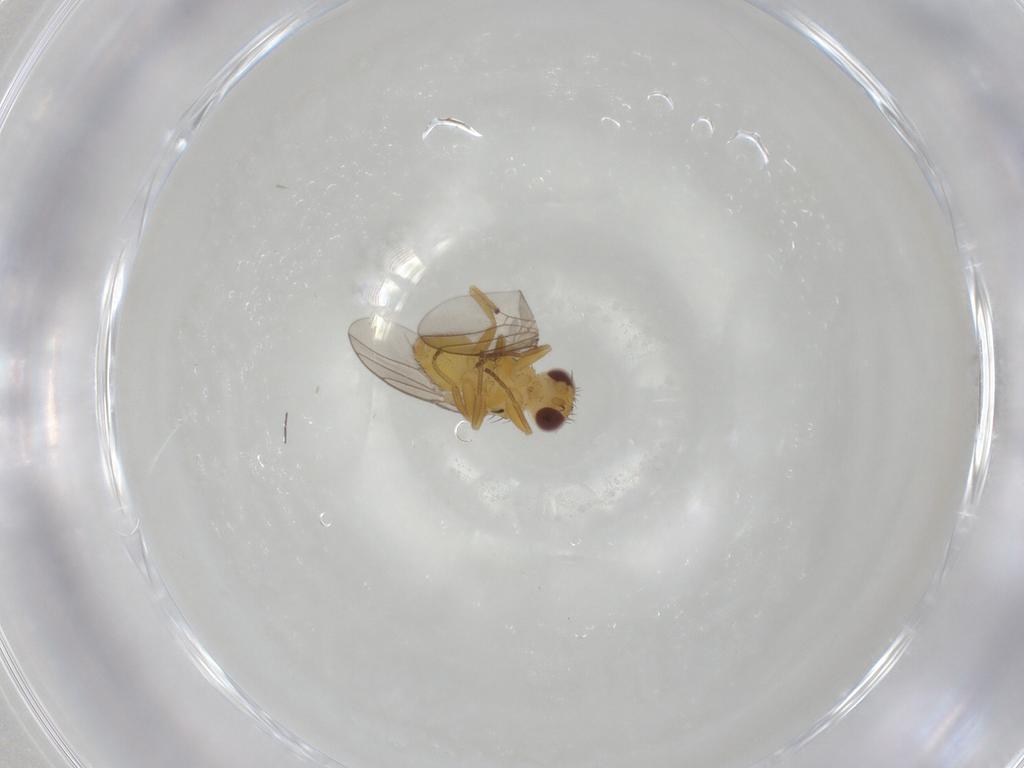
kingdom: Animalia
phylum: Arthropoda
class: Insecta
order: Diptera
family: Chloropidae
